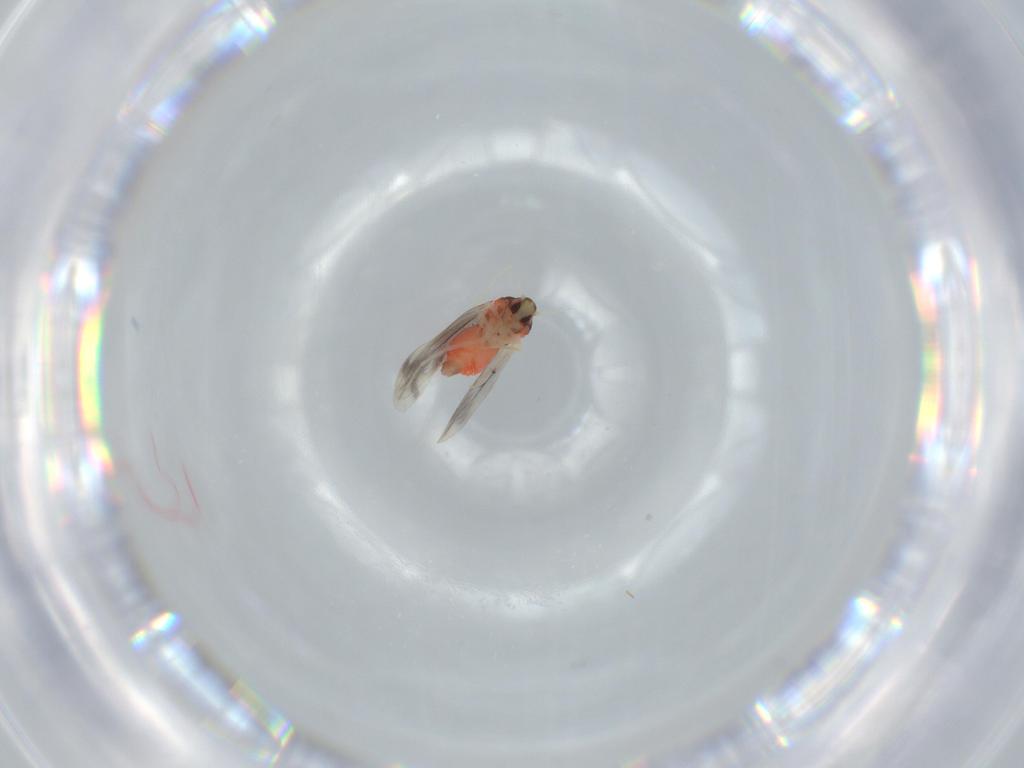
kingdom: Animalia
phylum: Arthropoda
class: Insecta
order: Hemiptera
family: Aleyrodidae
